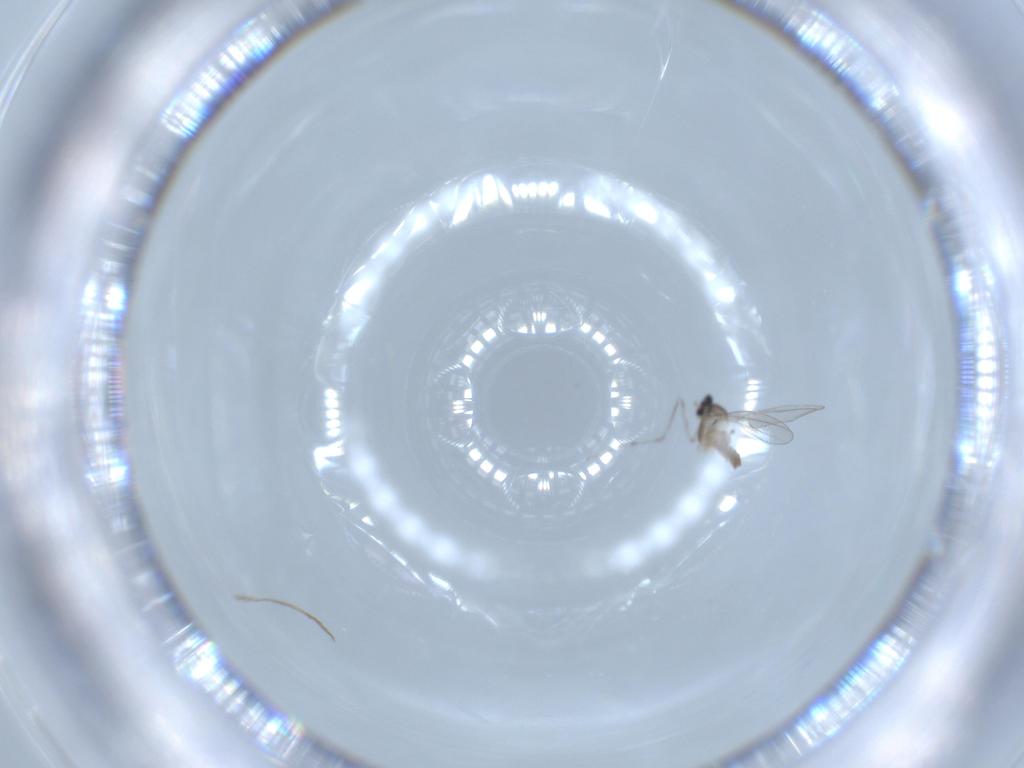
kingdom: Animalia
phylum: Arthropoda
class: Insecta
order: Diptera
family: Cecidomyiidae
